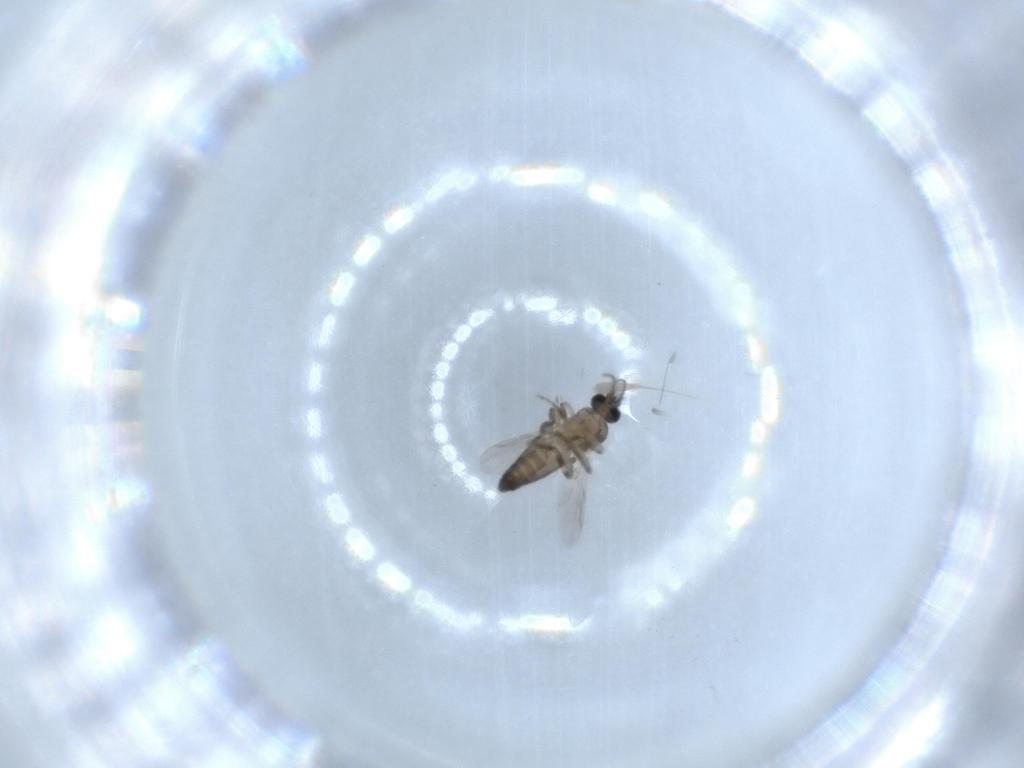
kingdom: Animalia
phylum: Arthropoda
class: Insecta
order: Diptera
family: Ceratopogonidae
